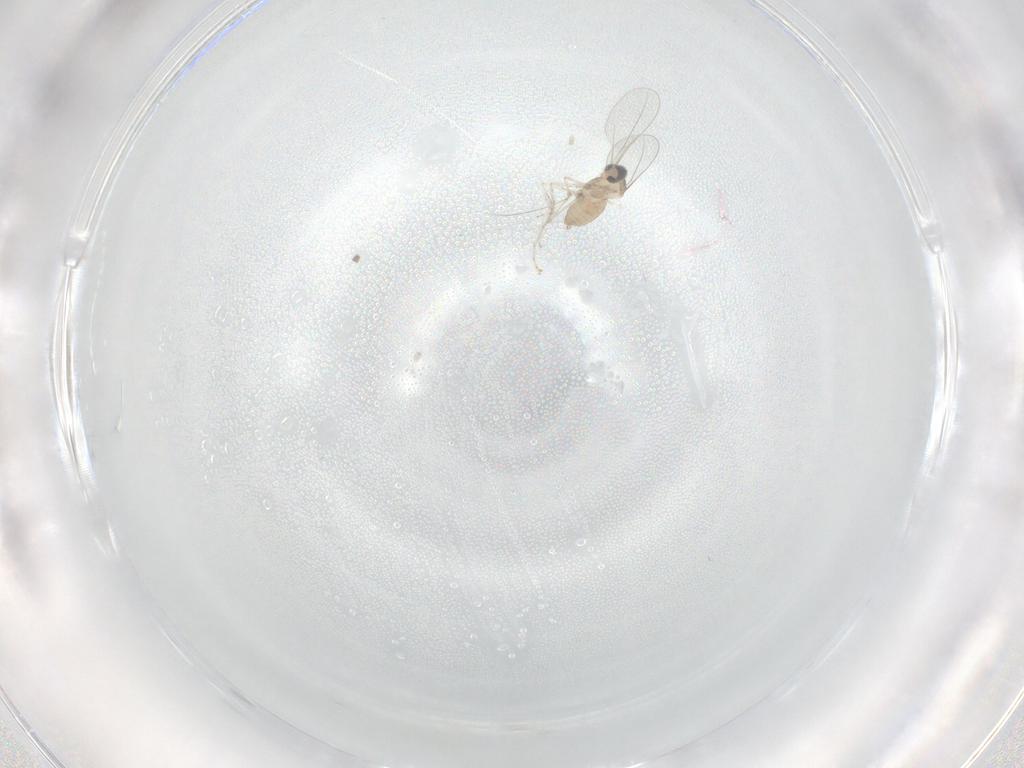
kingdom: Animalia
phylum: Arthropoda
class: Insecta
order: Diptera
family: Cecidomyiidae
